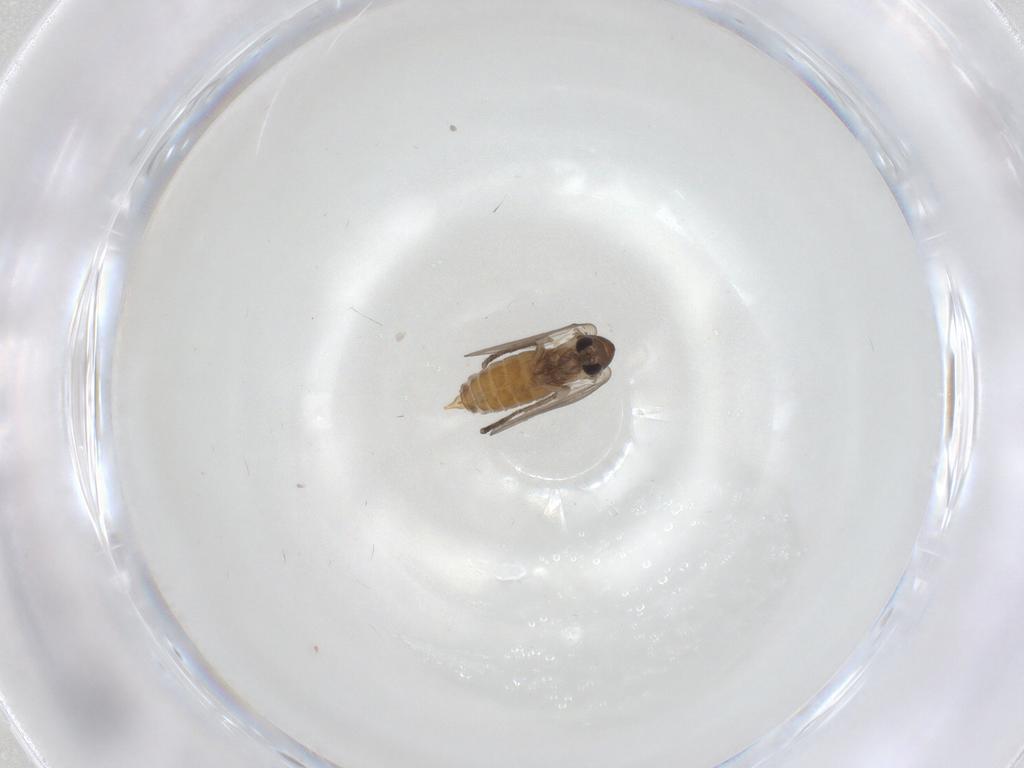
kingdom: Animalia
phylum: Arthropoda
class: Insecta
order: Diptera
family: Psychodidae
